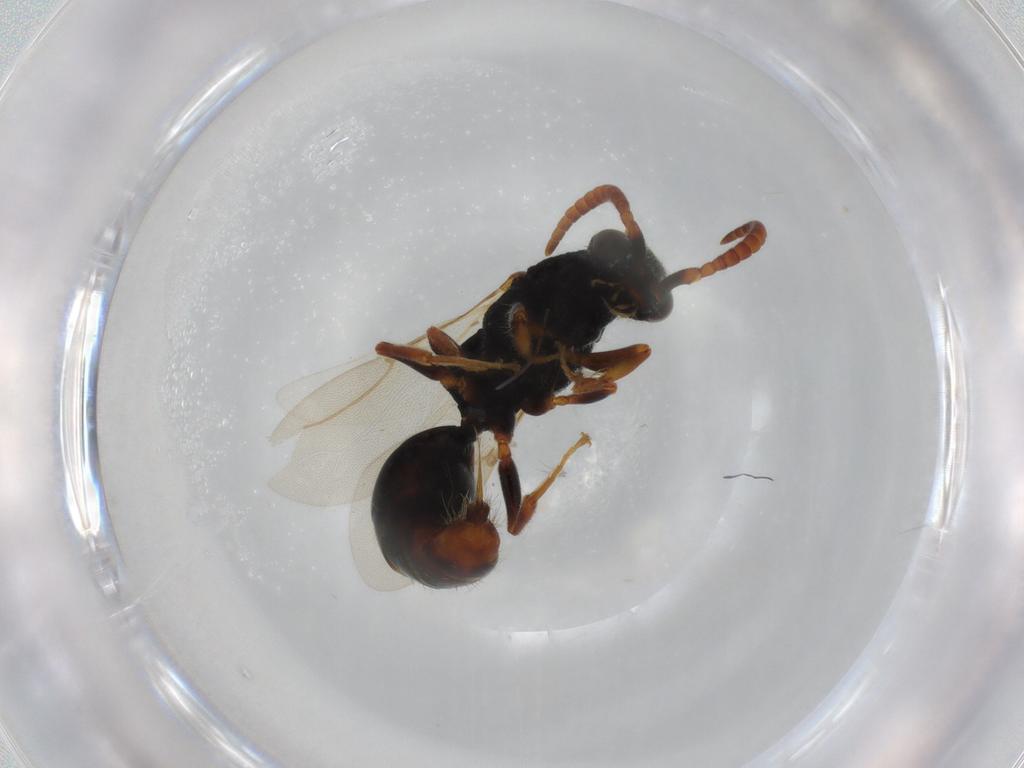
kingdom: Animalia
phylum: Arthropoda
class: Insecta
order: Hymenoptera
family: Bethylidae
